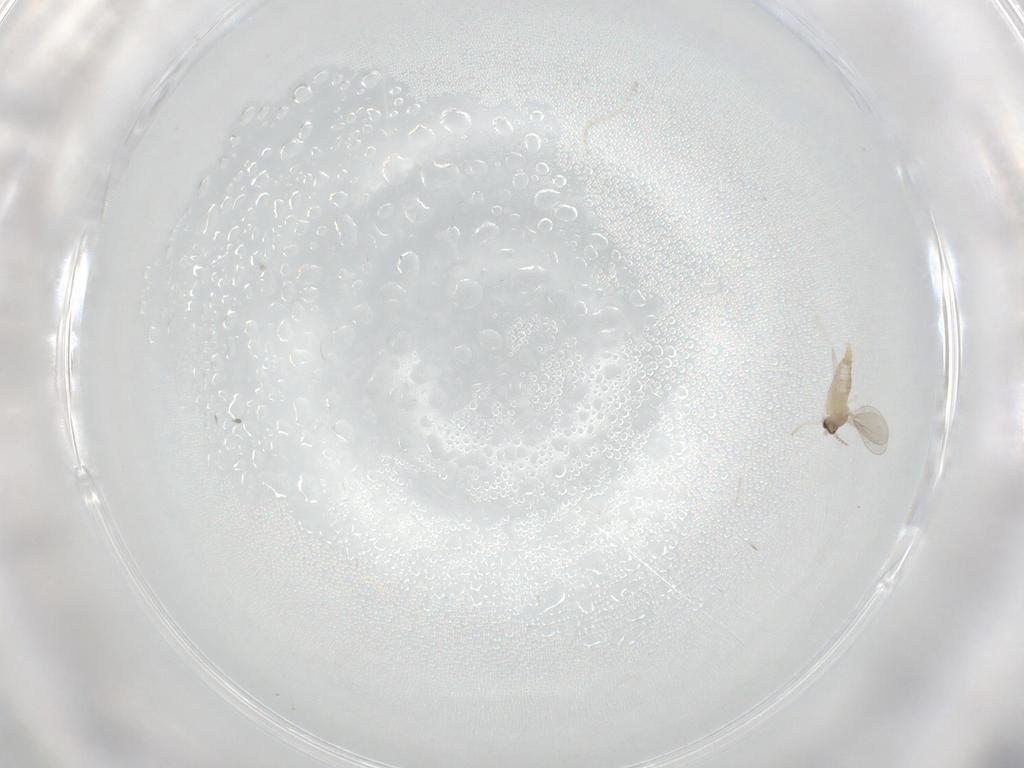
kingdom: Animalia
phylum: Arthropoda
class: Insecta
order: Diptera
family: Cecidomyiidae
